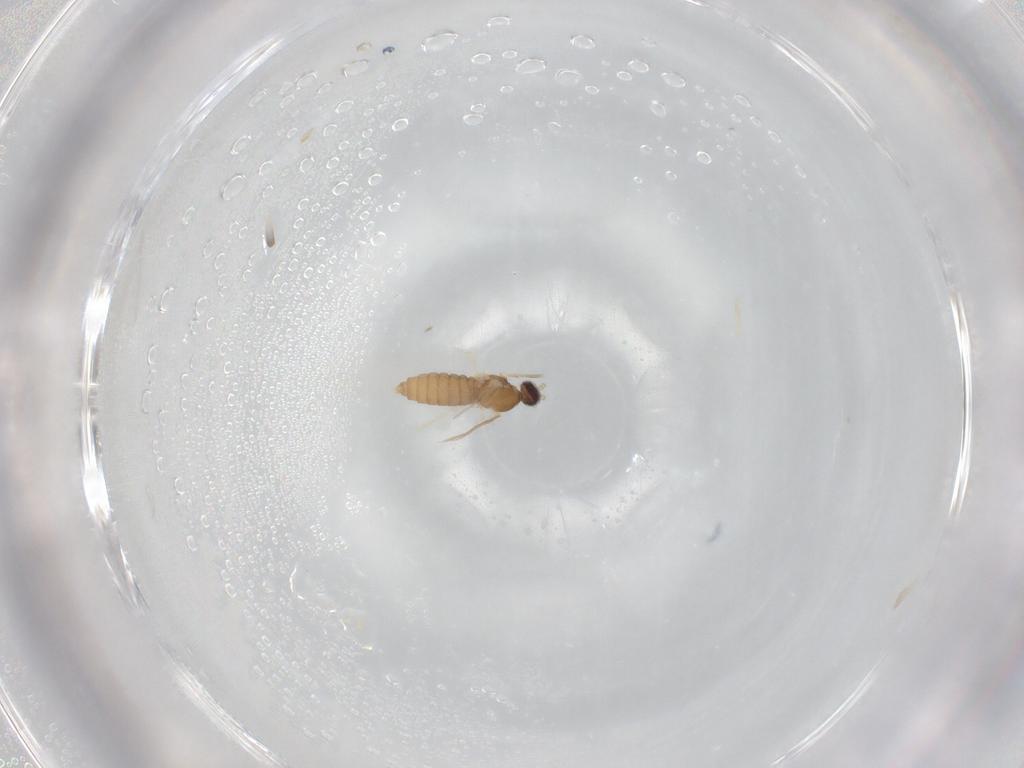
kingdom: Animalia
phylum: Arthropoda
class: Insecta
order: Diptera
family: Cecidomyiidae
